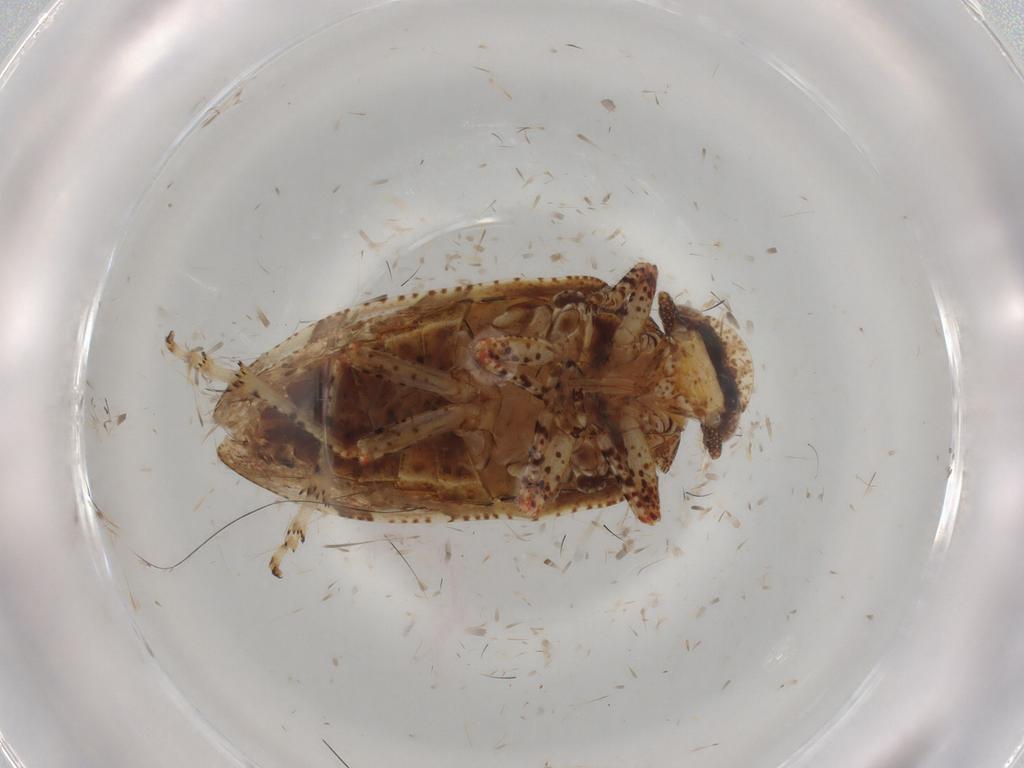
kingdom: Animalia
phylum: Arthropoda
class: Insecta
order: Hemiptera
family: Tettigometridae
